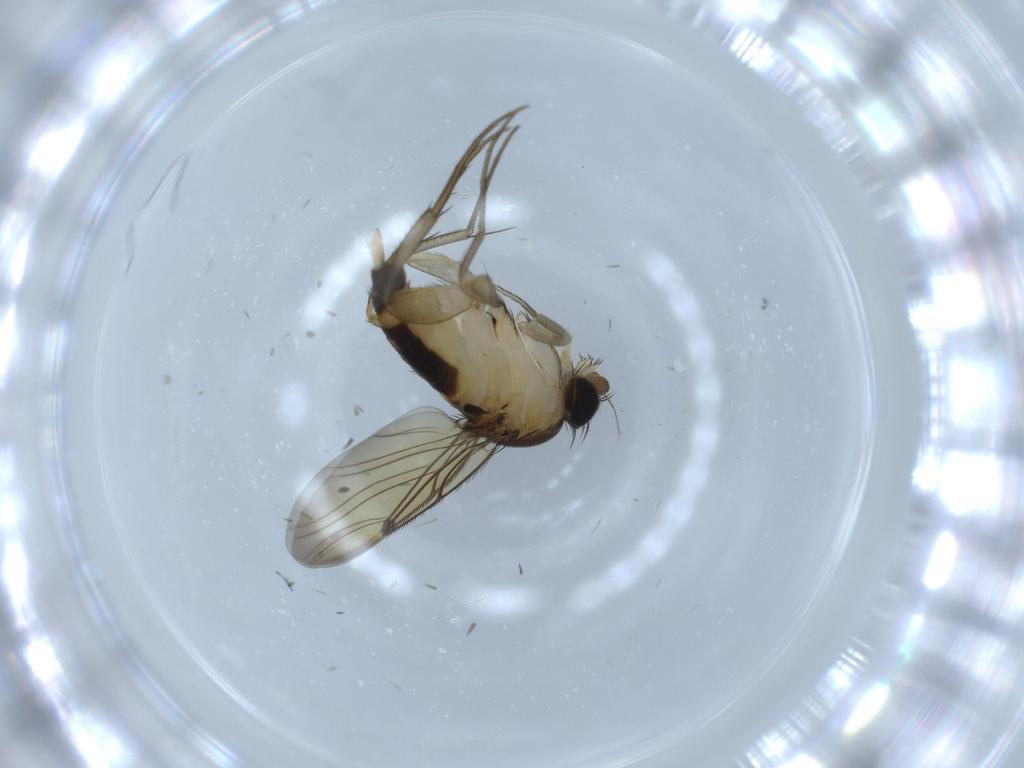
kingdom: Animalia
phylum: Arthropoda
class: Insecta
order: Diptera
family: Phoridae
